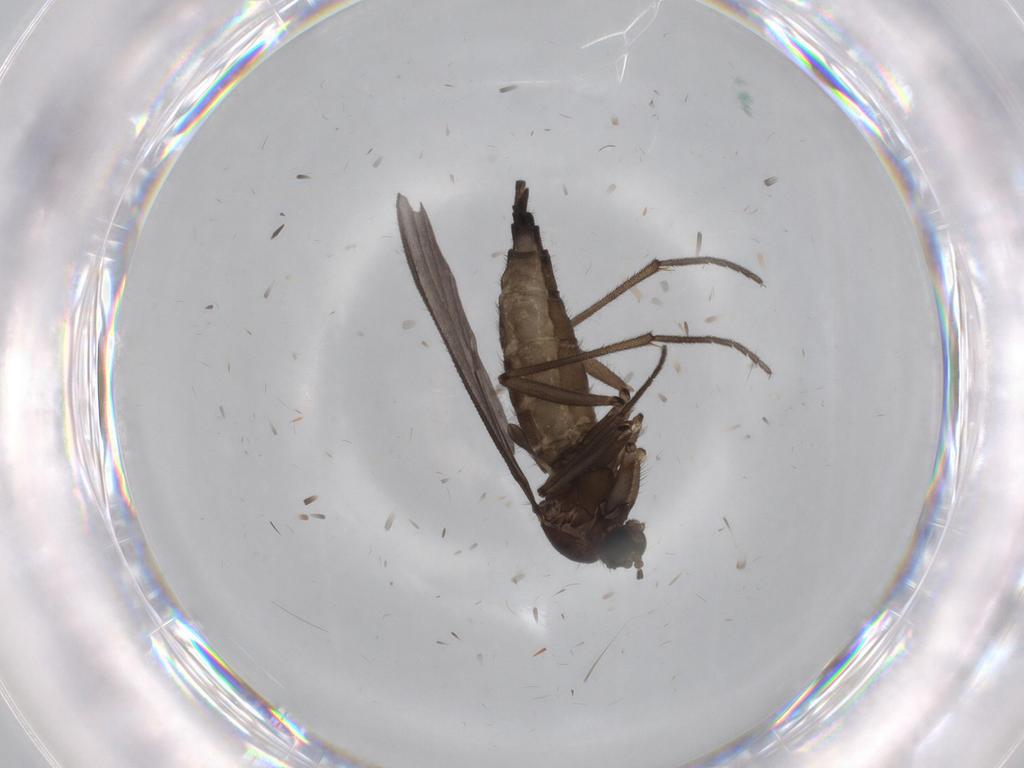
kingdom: Animalia
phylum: Arthropoda
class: Insecta
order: Diptera
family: Sciaridae
